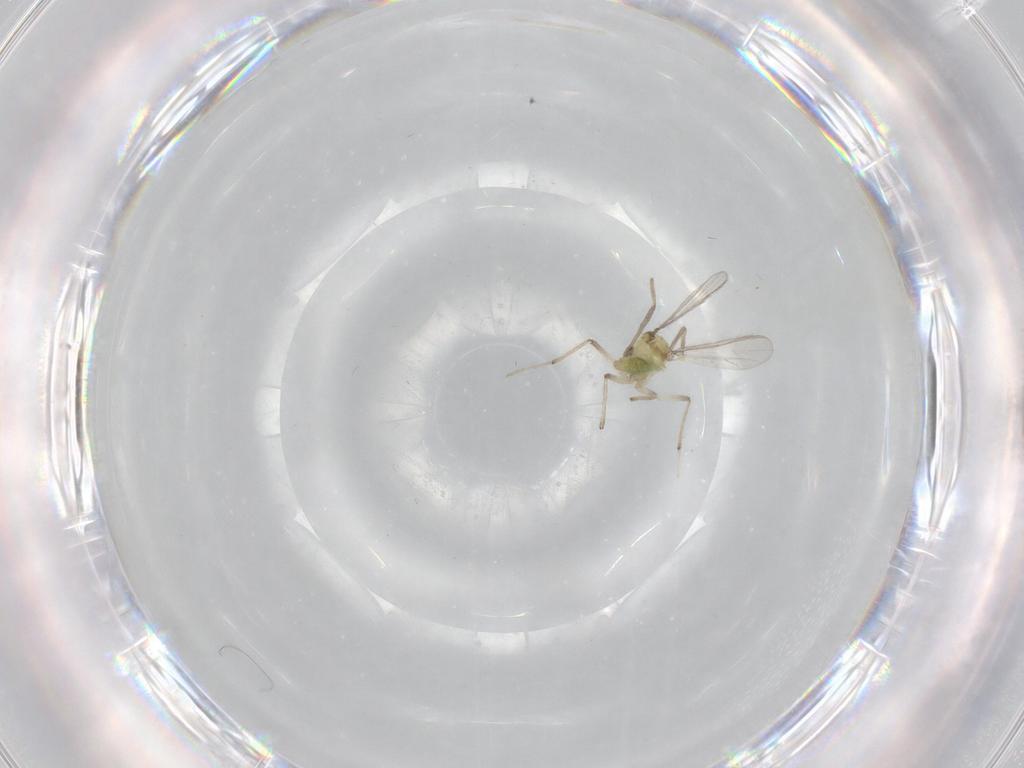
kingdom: Animalia
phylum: Arthropoda
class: Insecta
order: Diptera
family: Chironomidae
